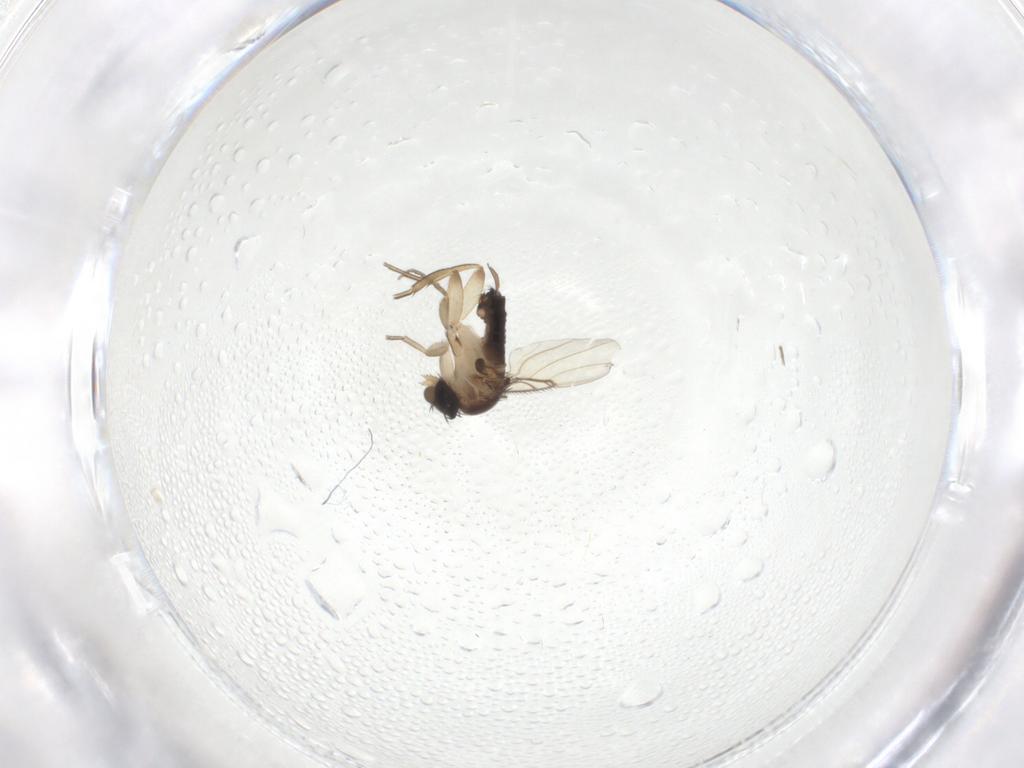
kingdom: Animalia
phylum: Arthropoda
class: Insecta
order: Diptera
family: Phoridae
